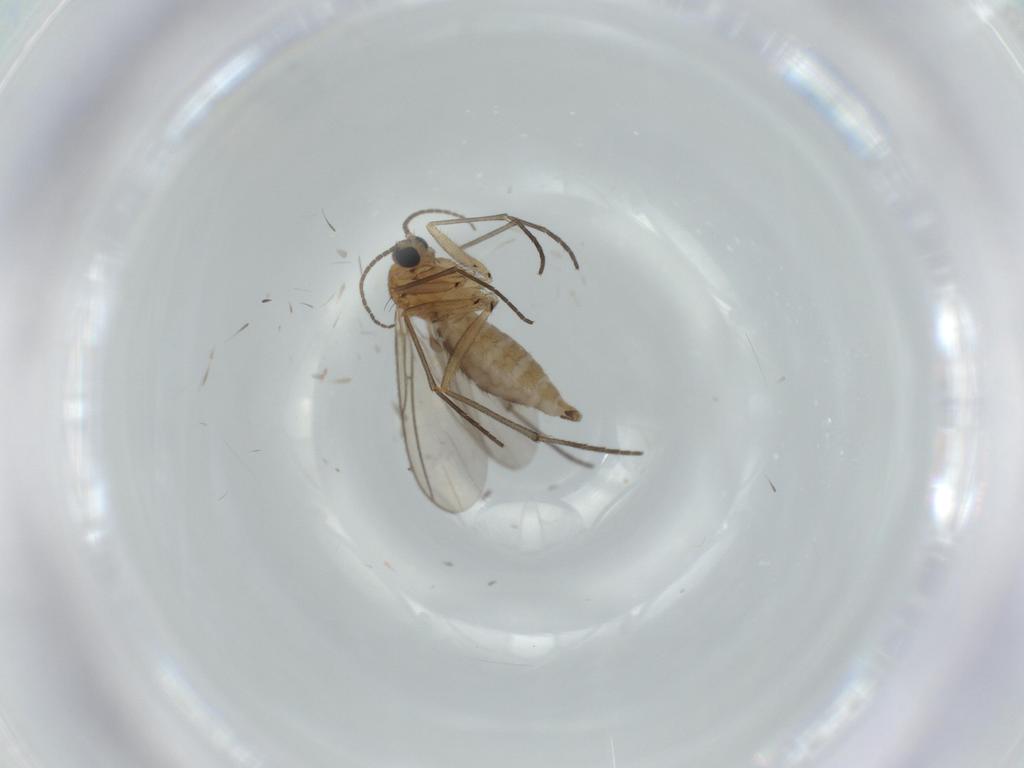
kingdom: Animalia
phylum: Arthropoda
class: Insecta
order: Diptera
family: Sciaridae
